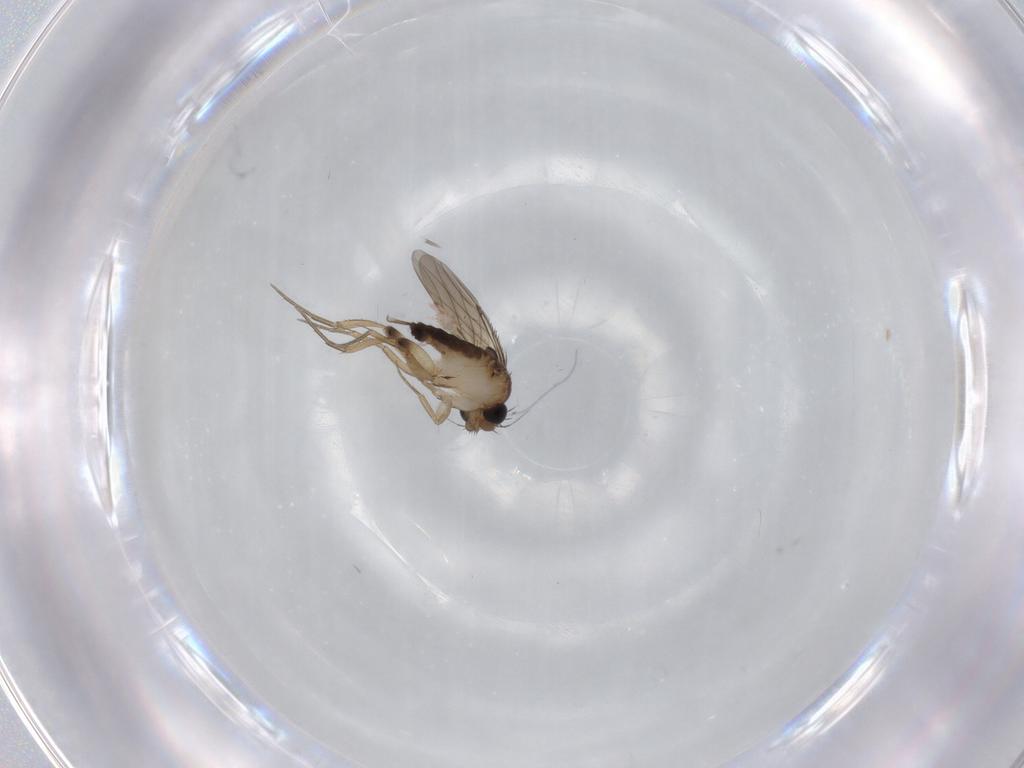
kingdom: Animalia
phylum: Arthropoda
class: Insecta
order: Diptera
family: Phoridae
